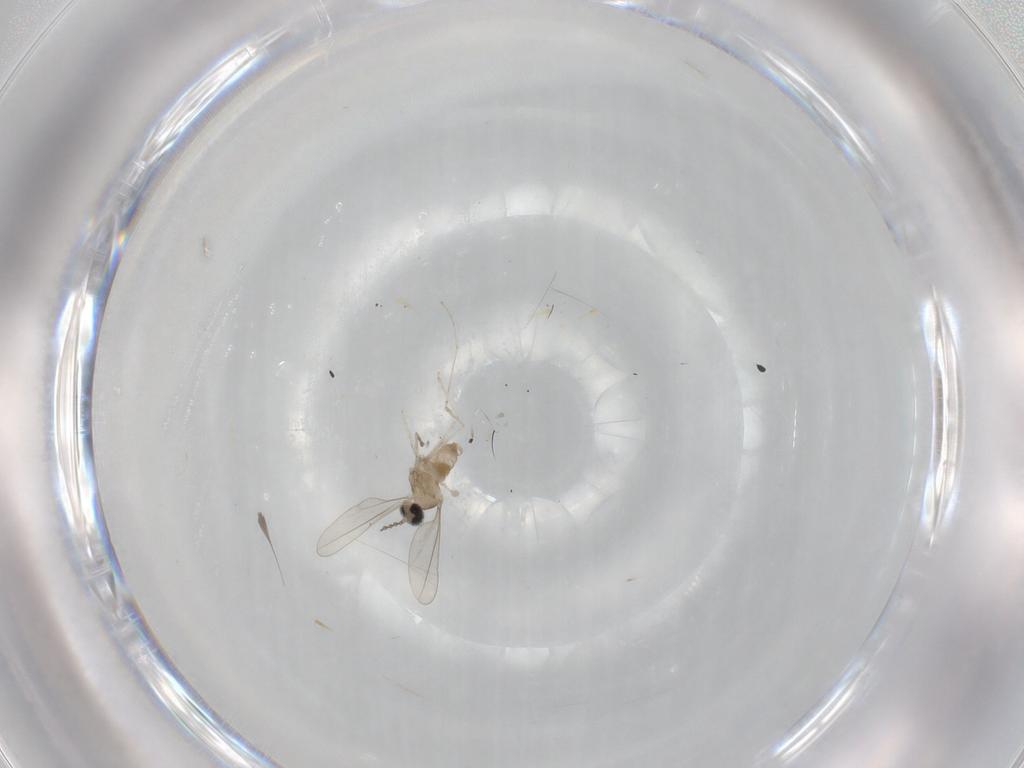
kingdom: Animalia
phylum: Arthropoda
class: Insecta
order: Diptera
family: Cecidomyiidae
